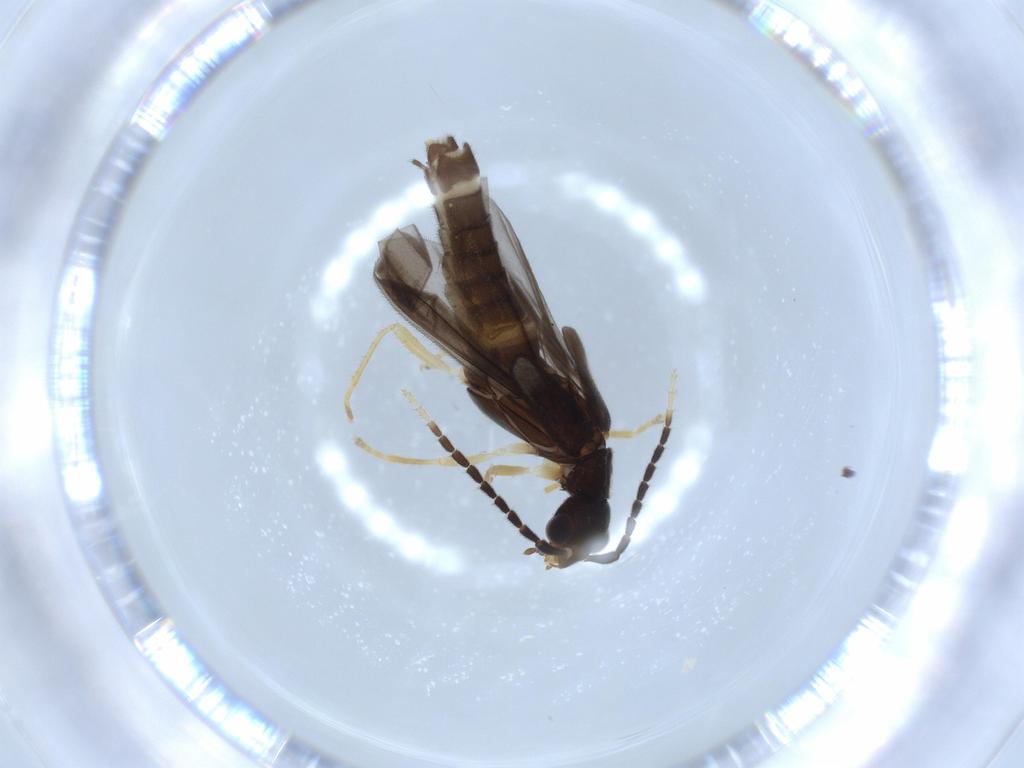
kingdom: Animalia
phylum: Arthropoda
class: Insecta
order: Coleoptera
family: Cantharidae
